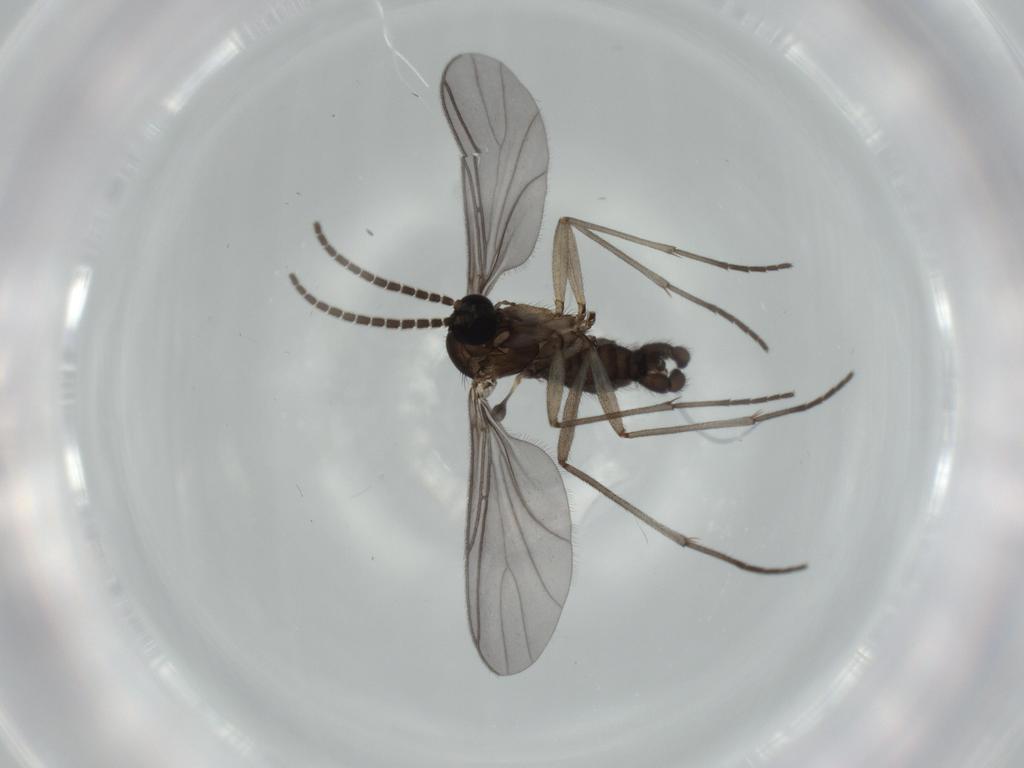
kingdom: Animalia
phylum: Arthropoda
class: Insecta
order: Diptera
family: Sciaridae
